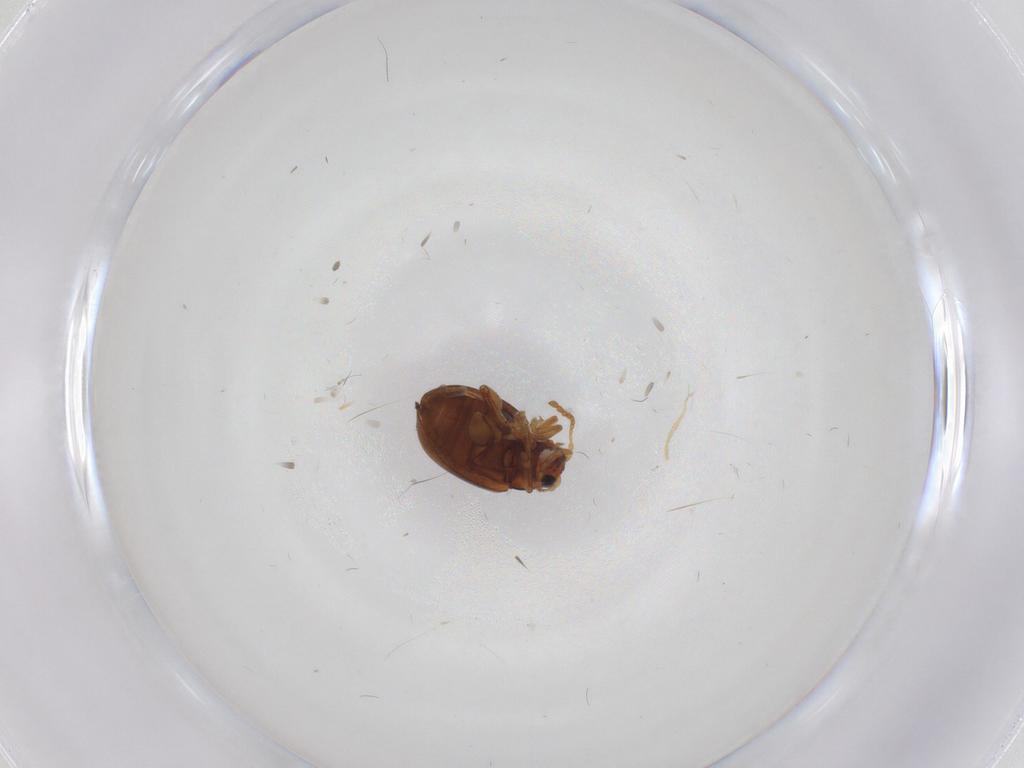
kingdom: Animalia
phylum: Arthropoda
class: Insecta
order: Coleoptera
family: Chrysomelidae
